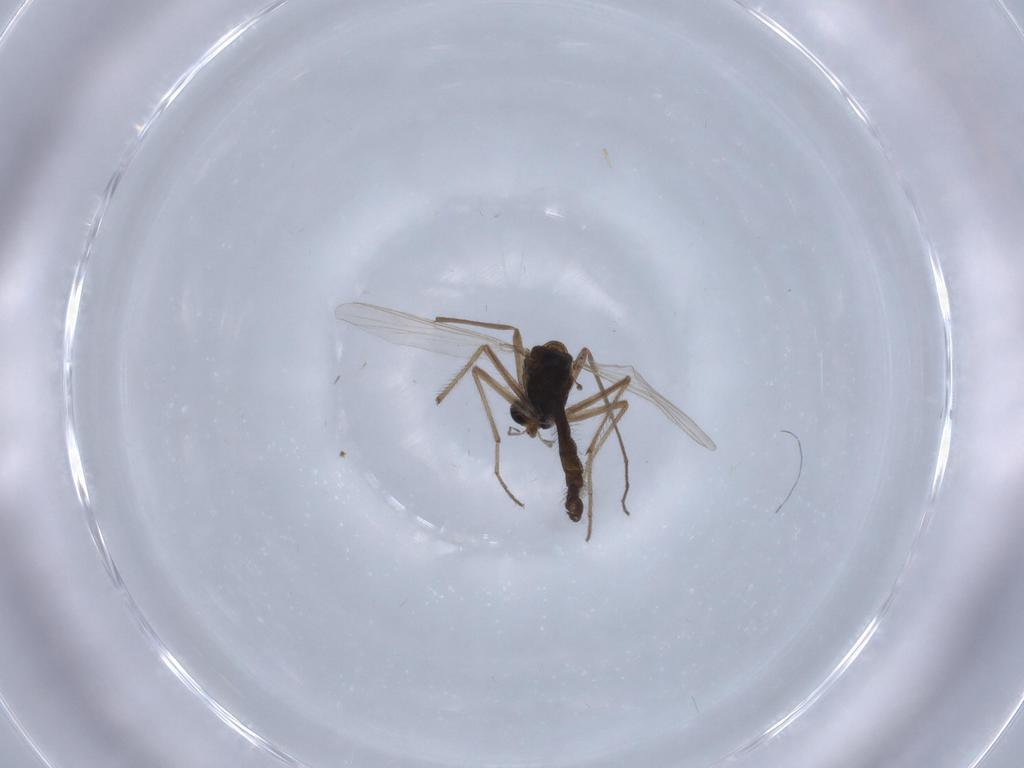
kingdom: Animalia
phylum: Arthropoda
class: Insecta
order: Diptera
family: Chironomidae
